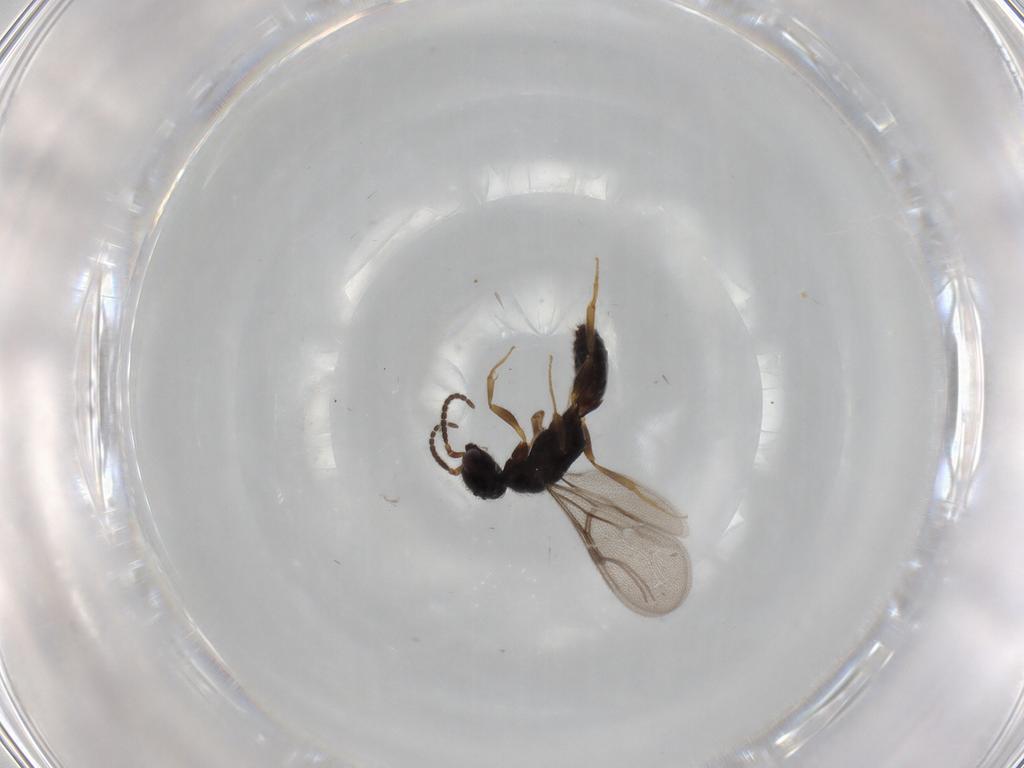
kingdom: Animalia
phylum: Arthropoda
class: Insecta
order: Hymenoptera
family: Bethylidae
